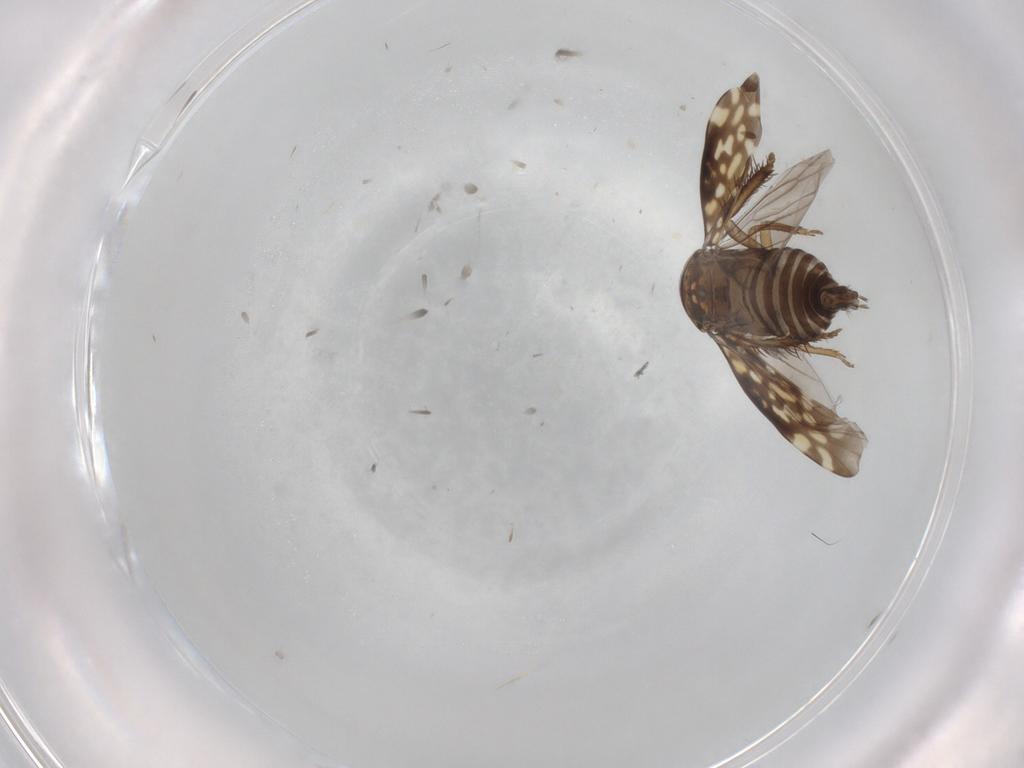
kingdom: Animalia
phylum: Arthropoda
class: Insecta
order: Hemiptera
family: Cicadellidae
